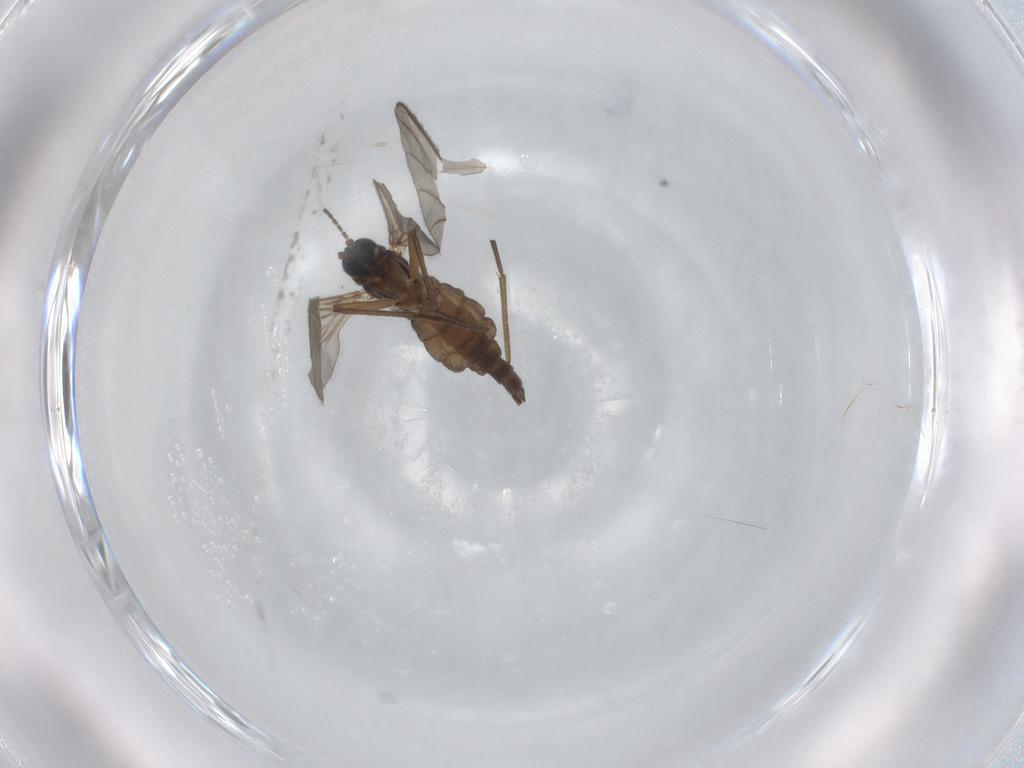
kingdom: Animalia
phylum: Arthropoda
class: Insecta
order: Diptera
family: Sciaridae
